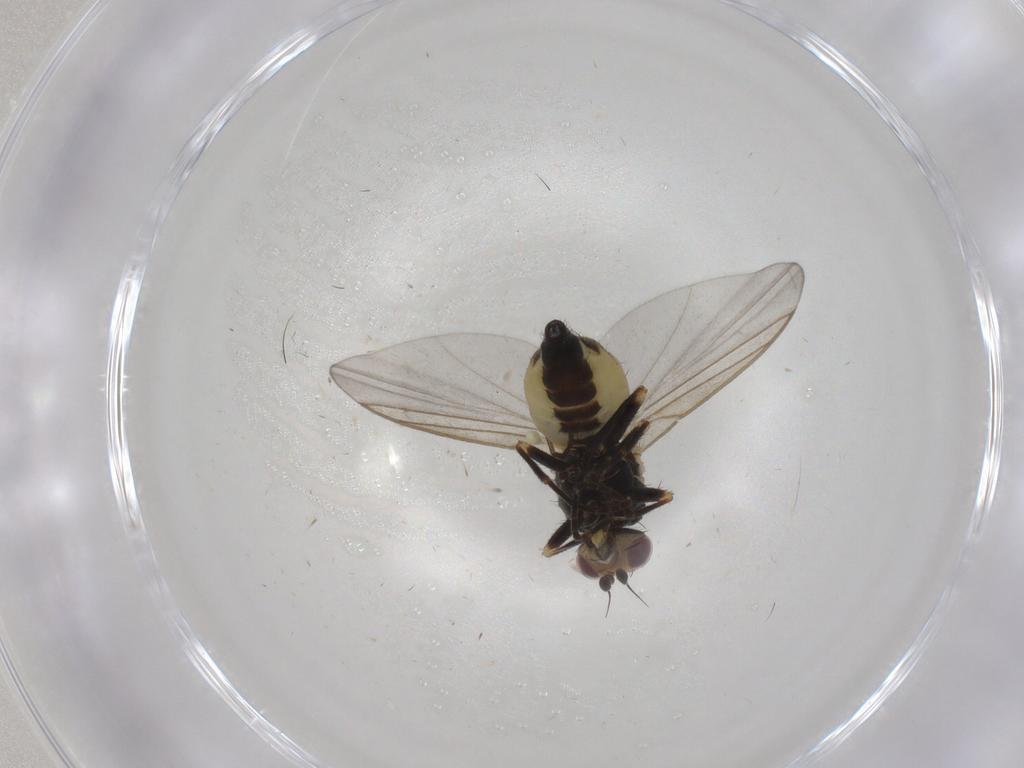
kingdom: Animalia
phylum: Arthropoda
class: Insecta
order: Diptera
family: Agromyzidae
